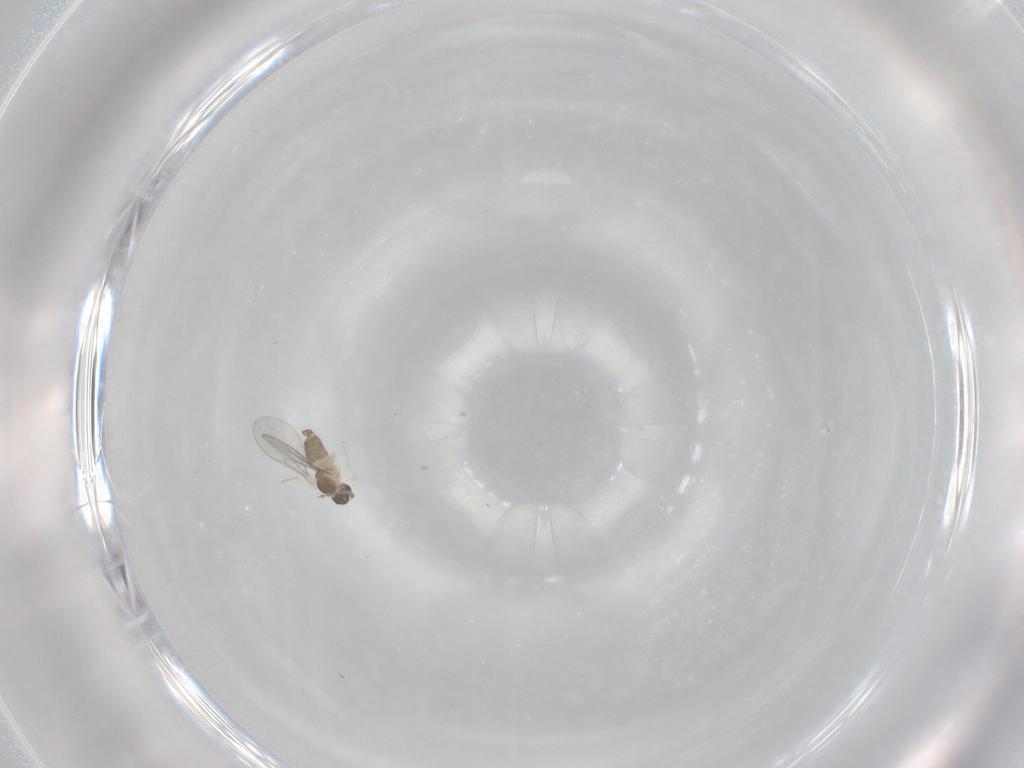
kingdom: Animalia
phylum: Arthropoda
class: Insecta
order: Diptera
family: Cecidomyiidae
